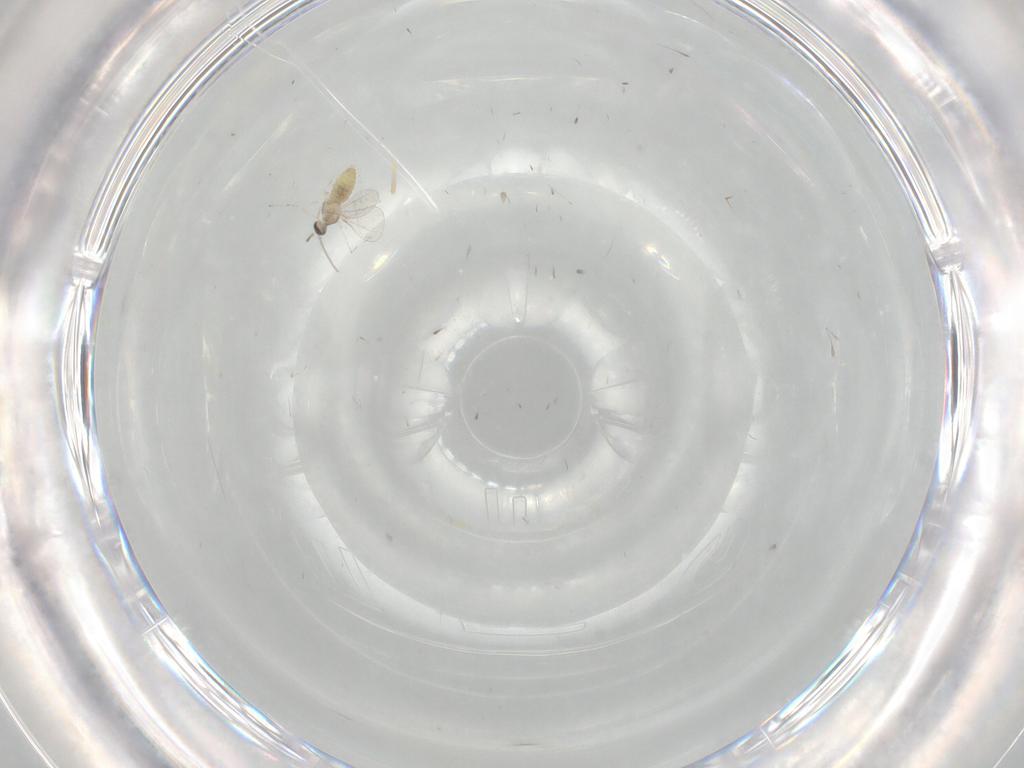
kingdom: Animalia
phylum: Arthropoda
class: Insecta
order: Diptera
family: Cecidomyiidae
